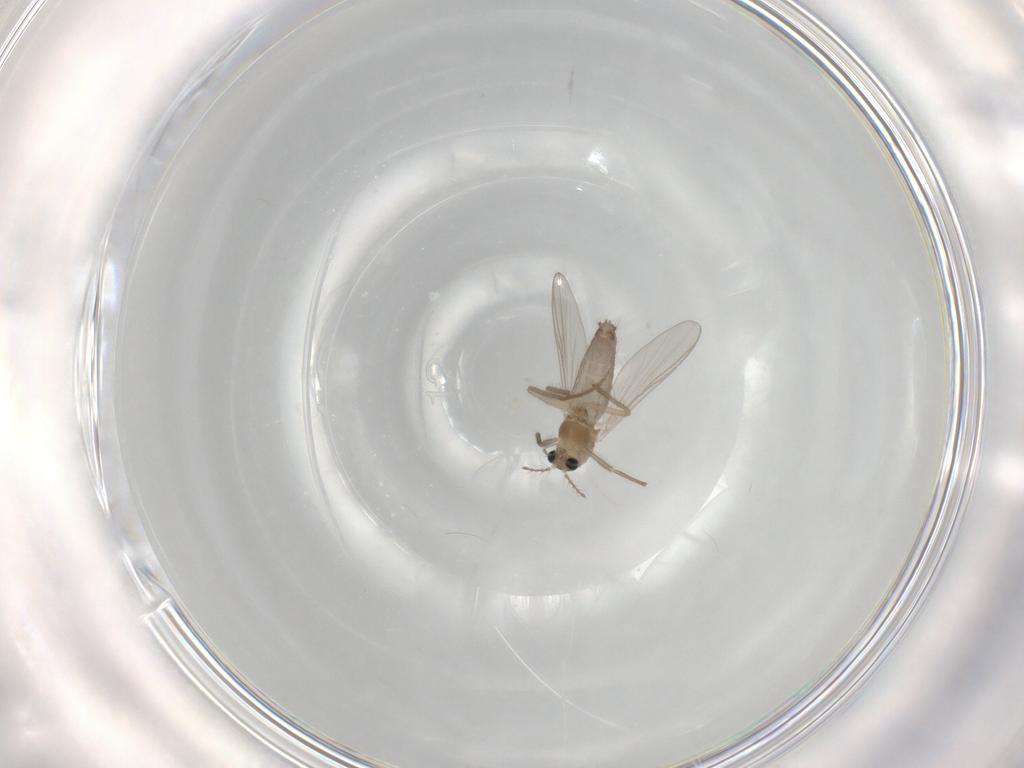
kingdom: Animalia
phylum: Arthropoda
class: Insecta
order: Diptera
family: Chironomidae
